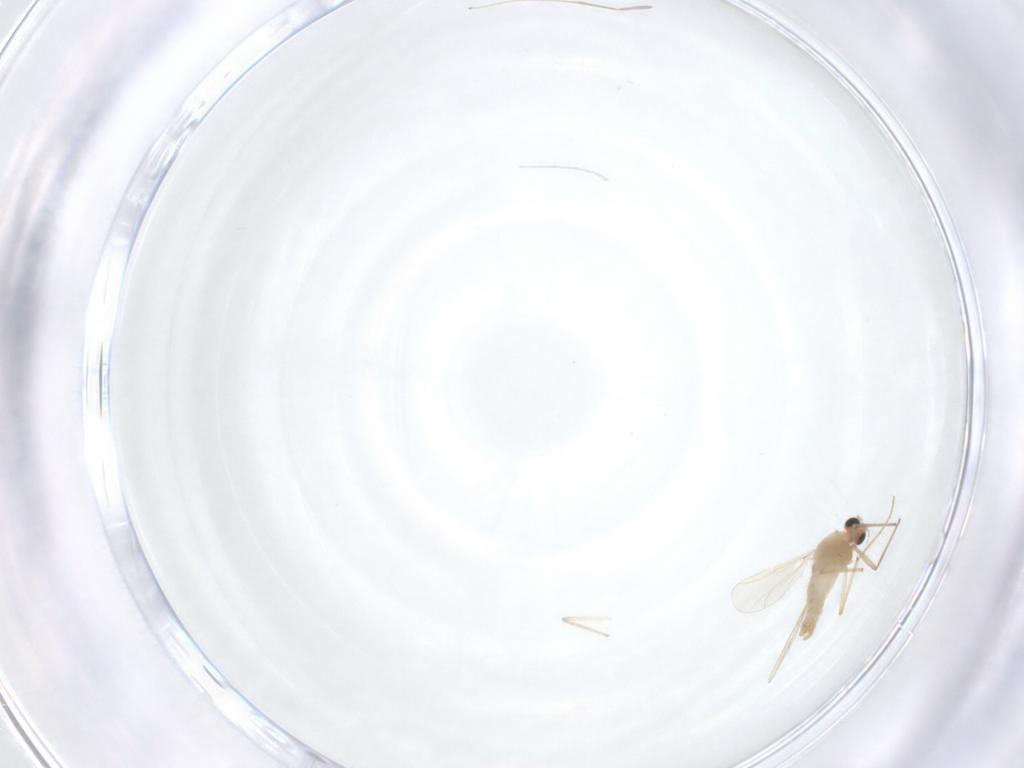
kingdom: Animalia
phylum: Arthropoda
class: Insecta
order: Diptera
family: Cecidomyiidae
